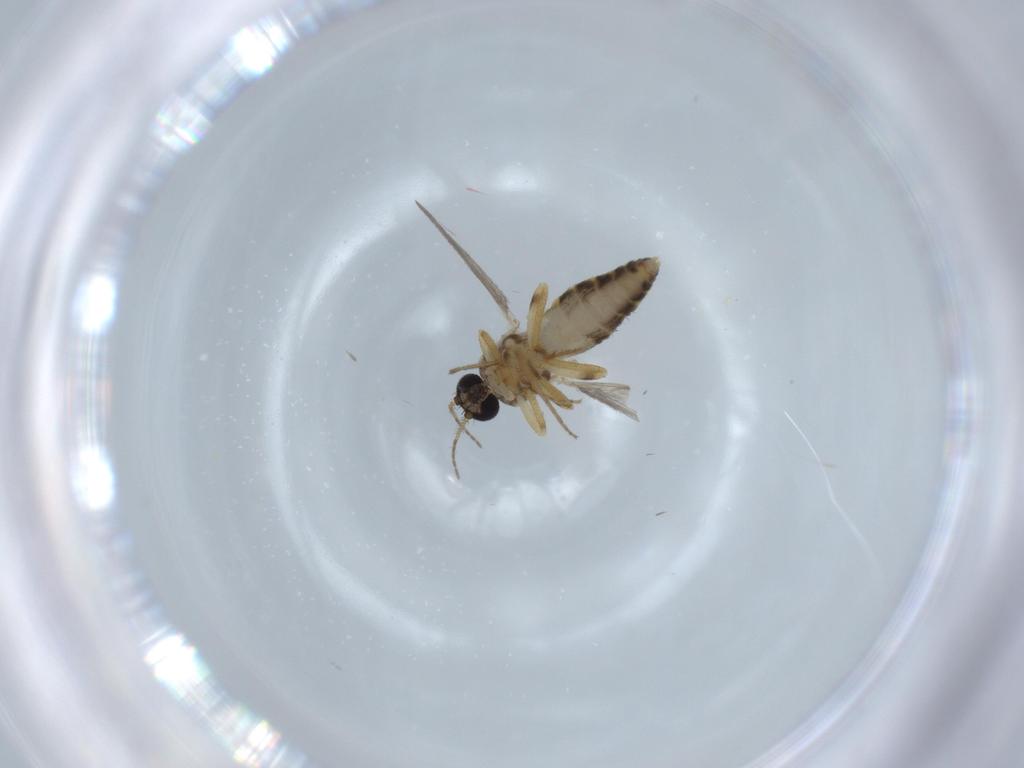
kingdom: Animalia
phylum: Arthropoda
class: Insecta
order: Diptera
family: Ceratopogonidae
